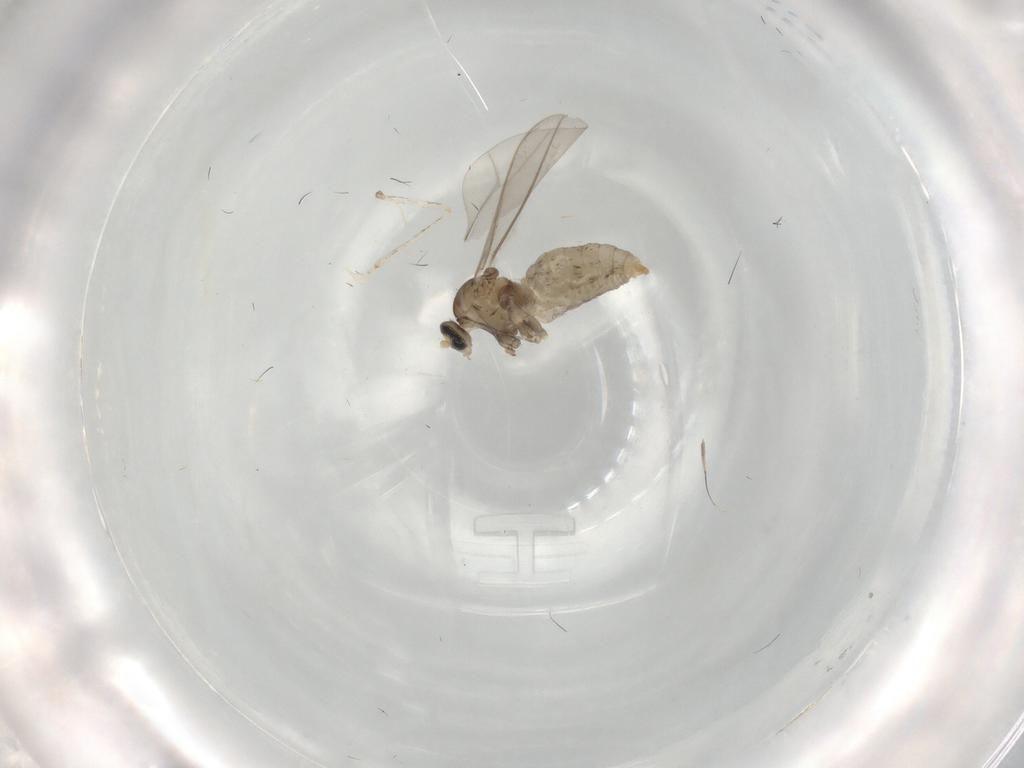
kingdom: Animalia
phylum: Arthropoda
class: Insecta
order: Diptera
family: Cecidomyiidae
